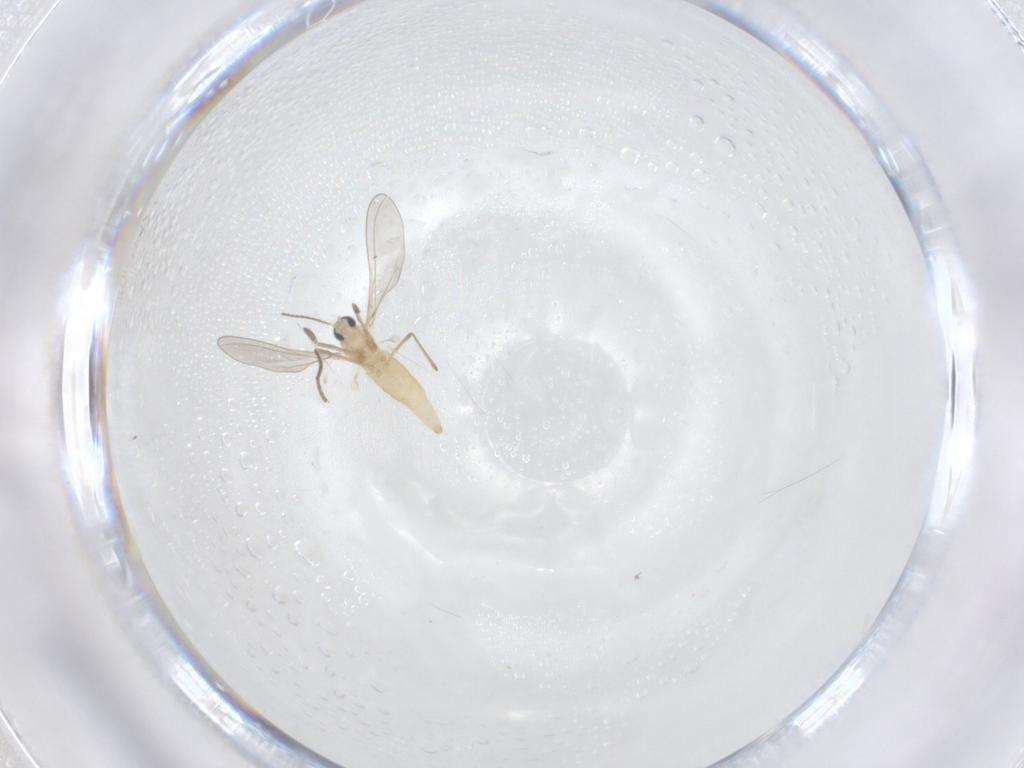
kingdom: Animalia
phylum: Arthropoda
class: Insecta
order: Diptera
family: Cecidomyiidae
